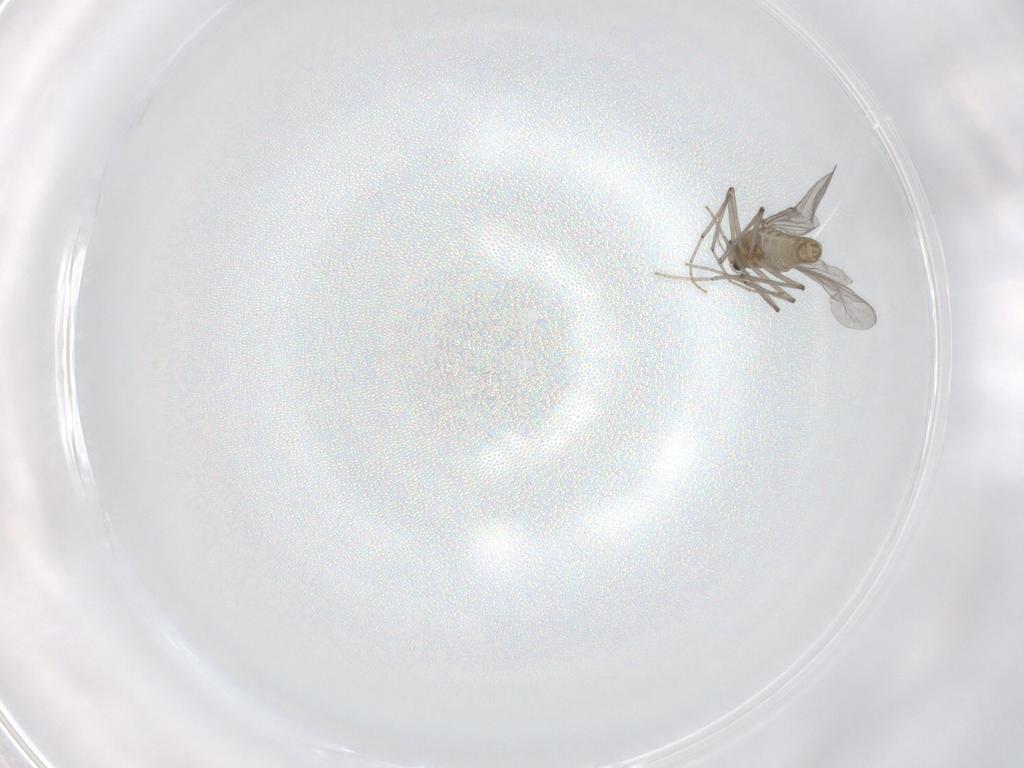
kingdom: Animalia
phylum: Arthropoda
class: Insecta
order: Diptera
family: Chironomidae
